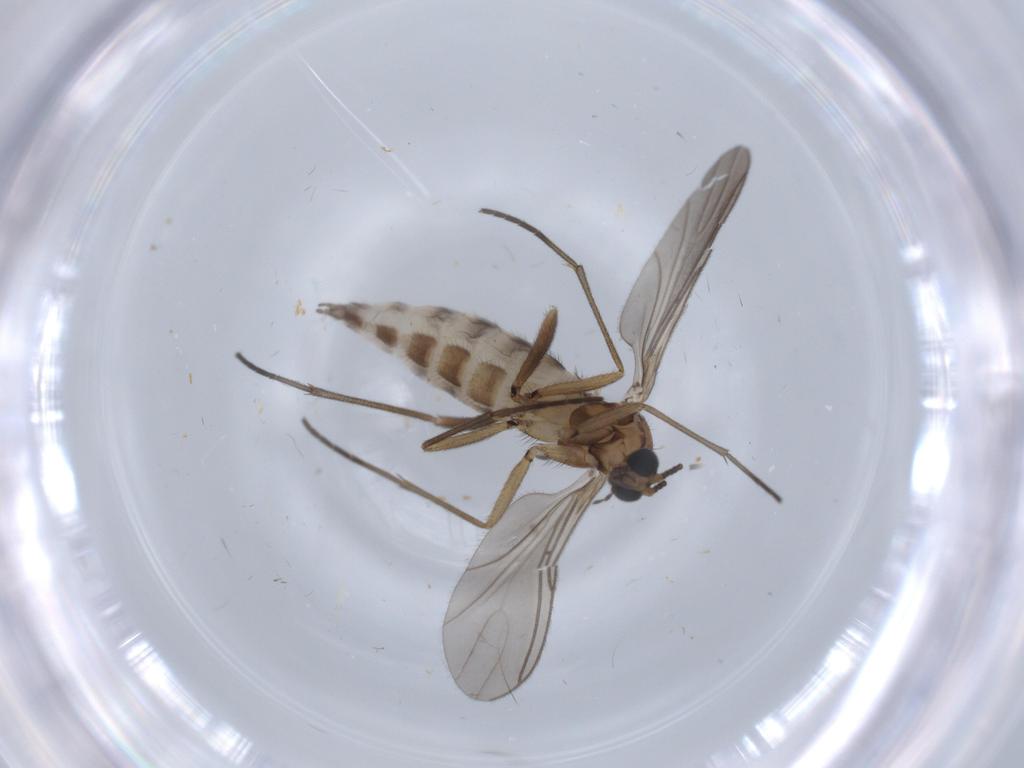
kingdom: Animalia
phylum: Arthropoda
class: Insecta
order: Diptera
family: Sciaridae
